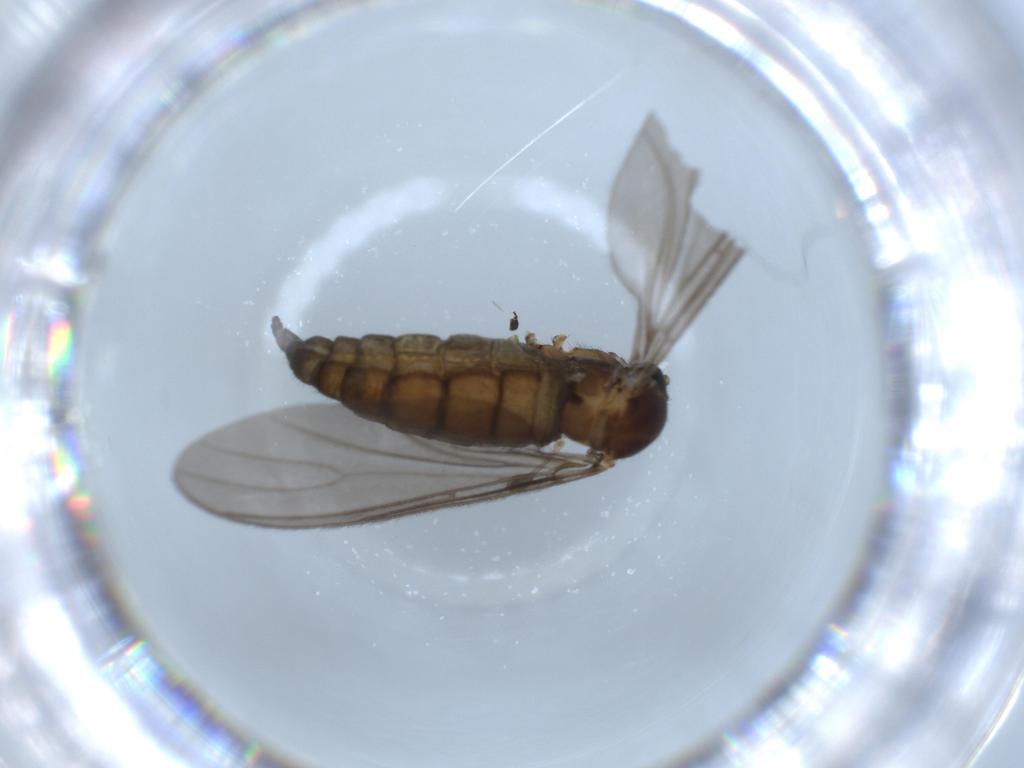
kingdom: Animalia
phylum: Arthropoda
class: Insecta
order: Diptera
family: Sciaridae
